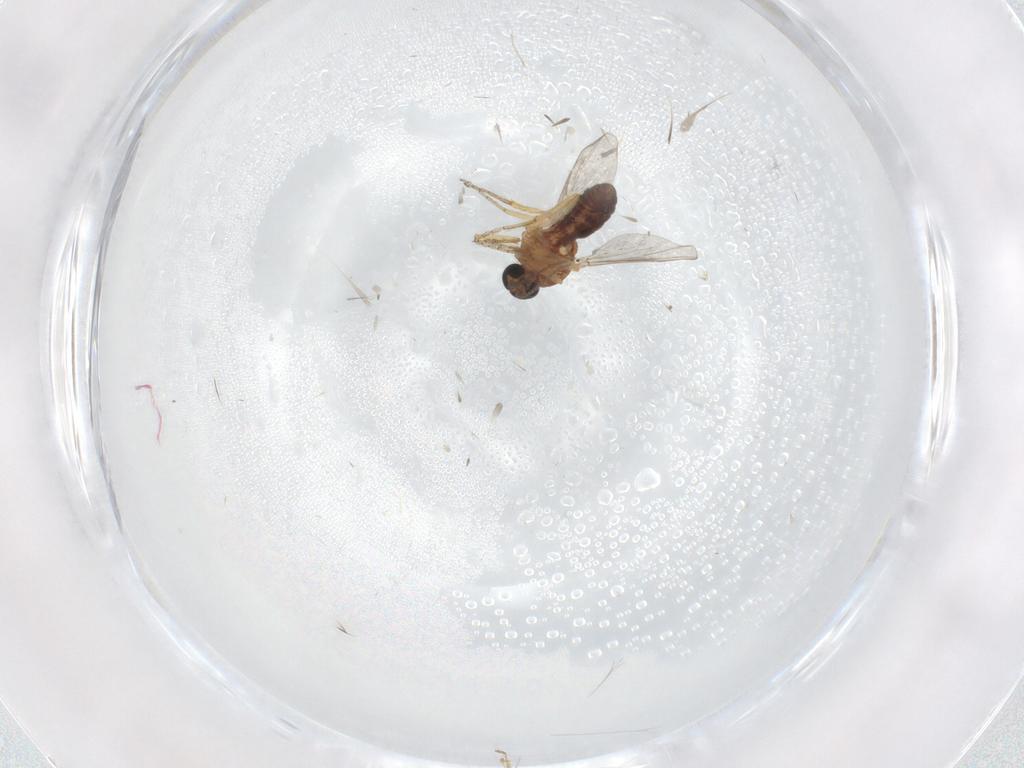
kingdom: Animalia
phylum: Arthropoda
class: Insecta
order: Diptera
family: Ceratopogonidae
